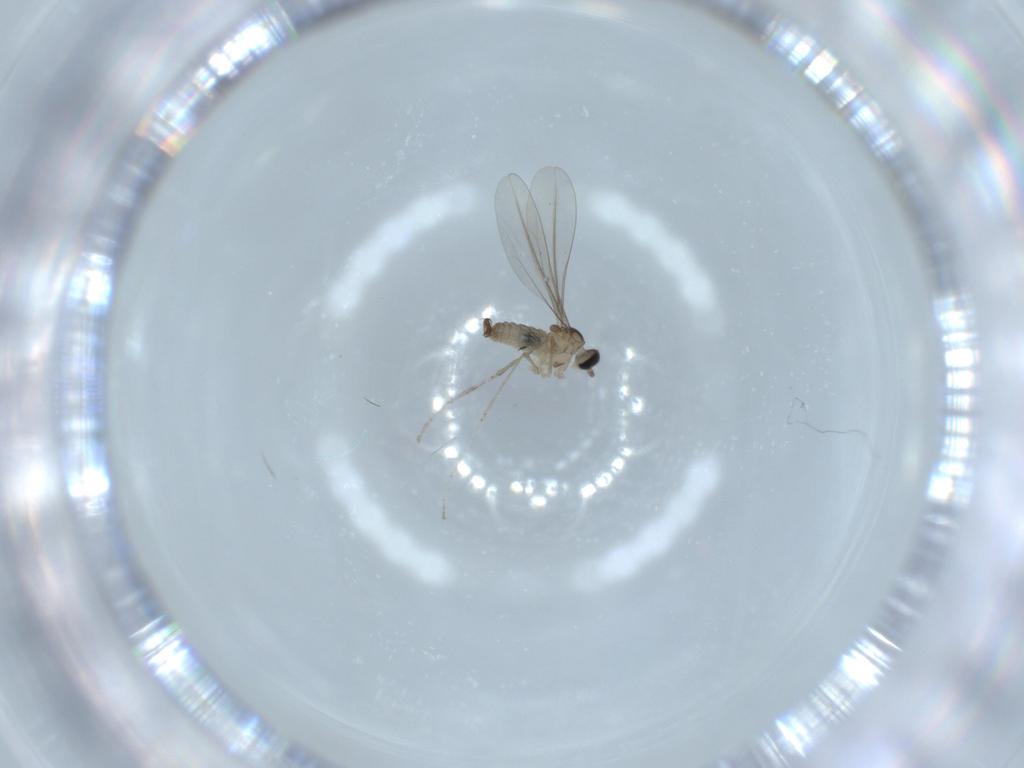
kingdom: Animalia
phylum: Arthropoda
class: Insecta
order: Diptera
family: Cecidomyiidae
